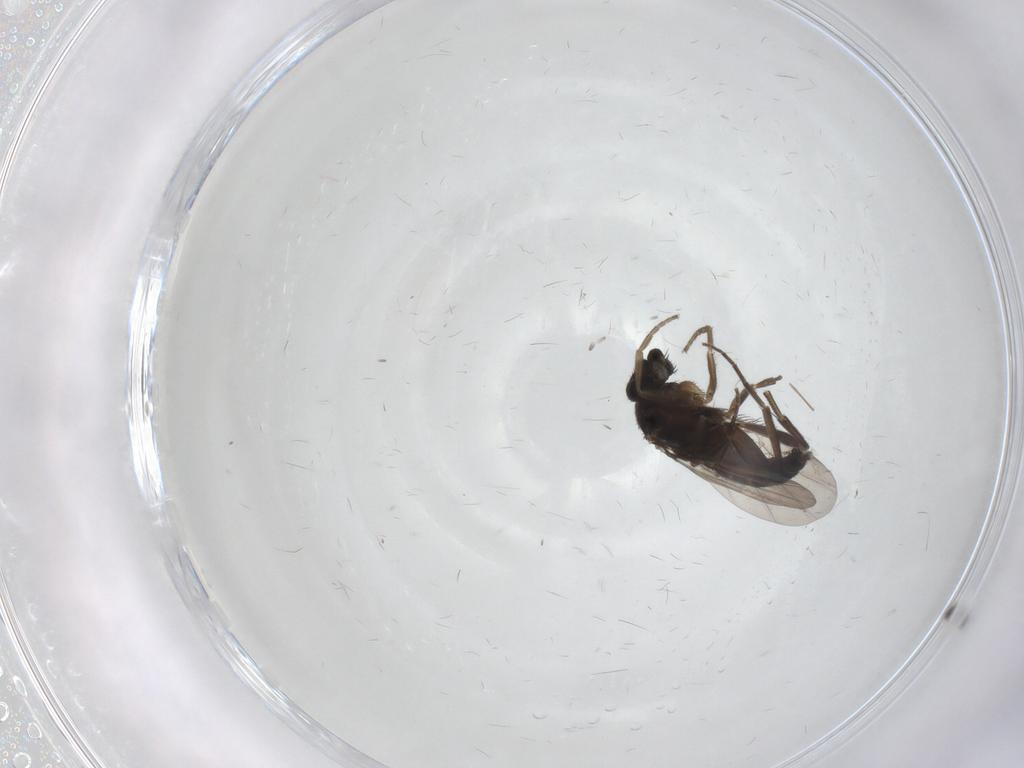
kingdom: Animalia
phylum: Arthropoda
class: Insecta
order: Diptera
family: Phoridae
